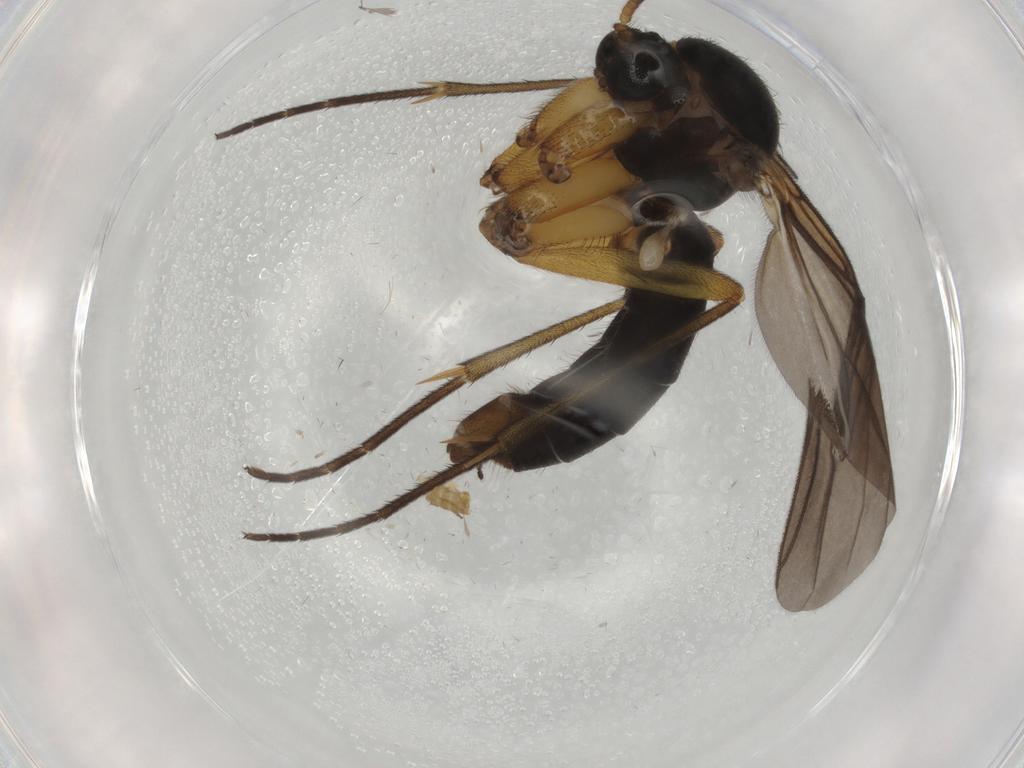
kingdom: Animalia
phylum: Arthropoda
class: Insecta
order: Diptera
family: Mycetophilidae
